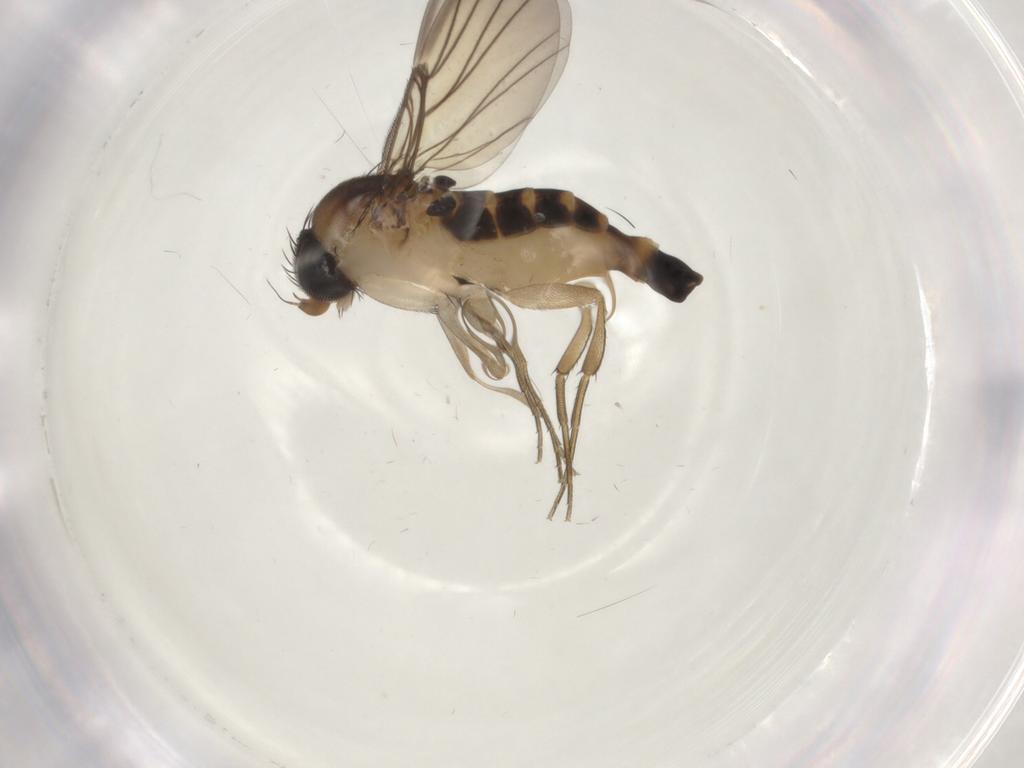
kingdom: Animalia
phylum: Arthropoda
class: Insecta
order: Diptera
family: Phoridae
